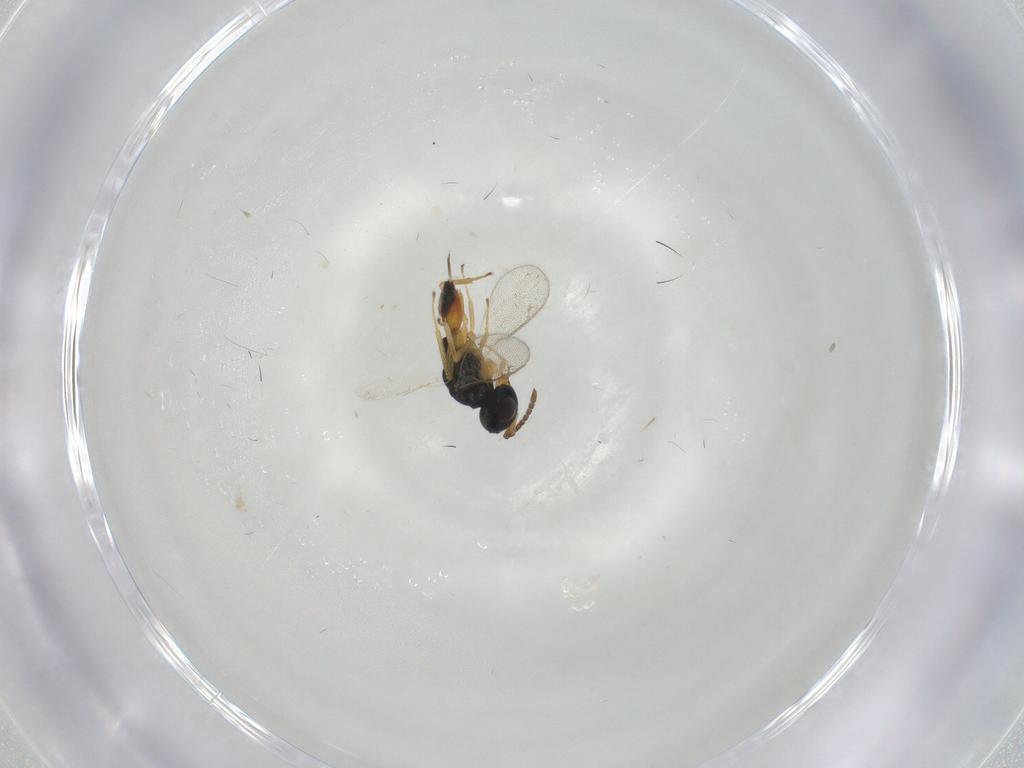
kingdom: Animalia
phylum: Arthropoda
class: Insecta
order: Hymenoptera
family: Pteromalidae
